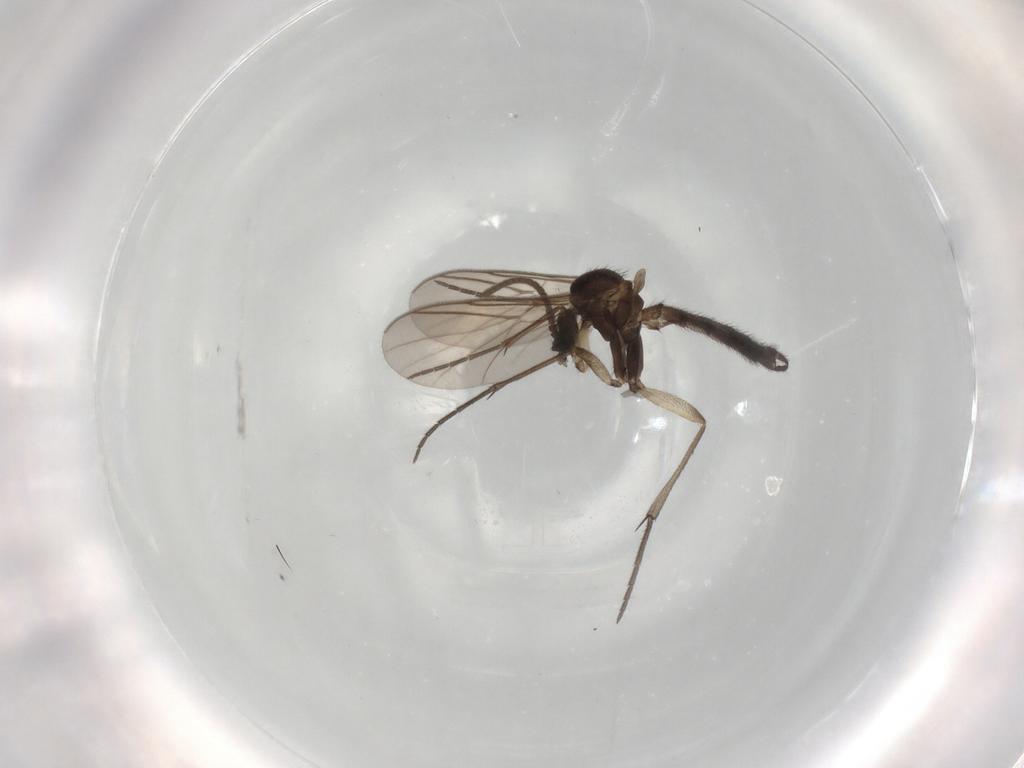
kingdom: Animalia
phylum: Arthropoda
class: Insecta
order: Diptera
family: Keroplatidae
